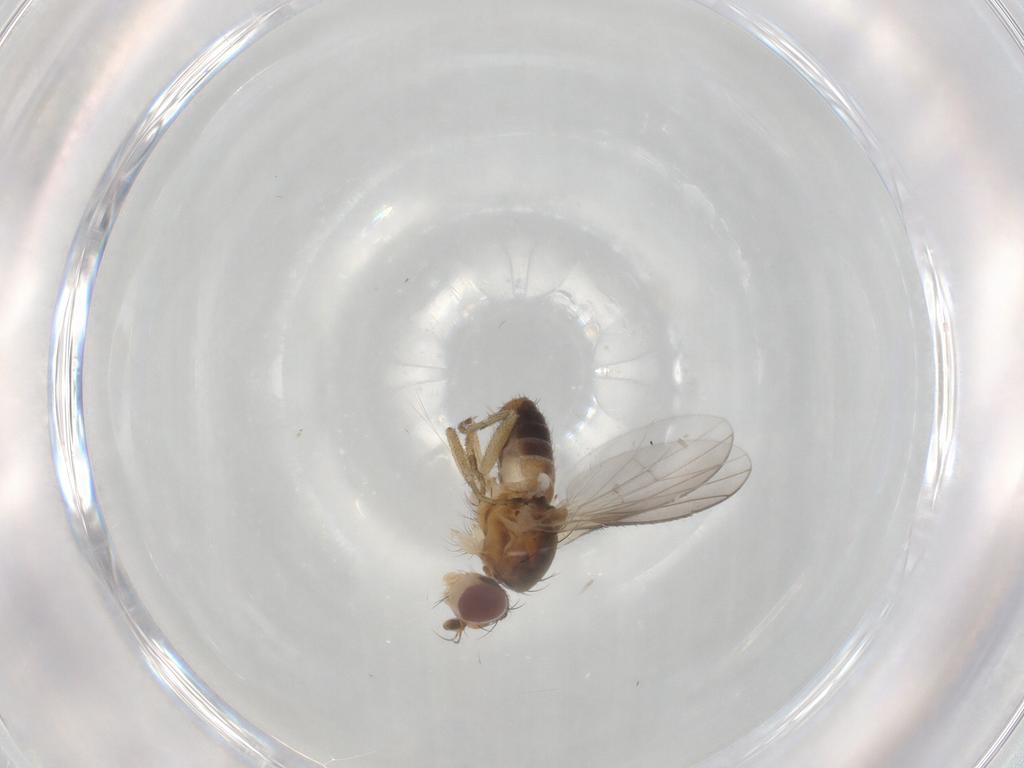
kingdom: Animalia
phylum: Arthropoda
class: Insecta
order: Diptera
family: Heleomyzidae
